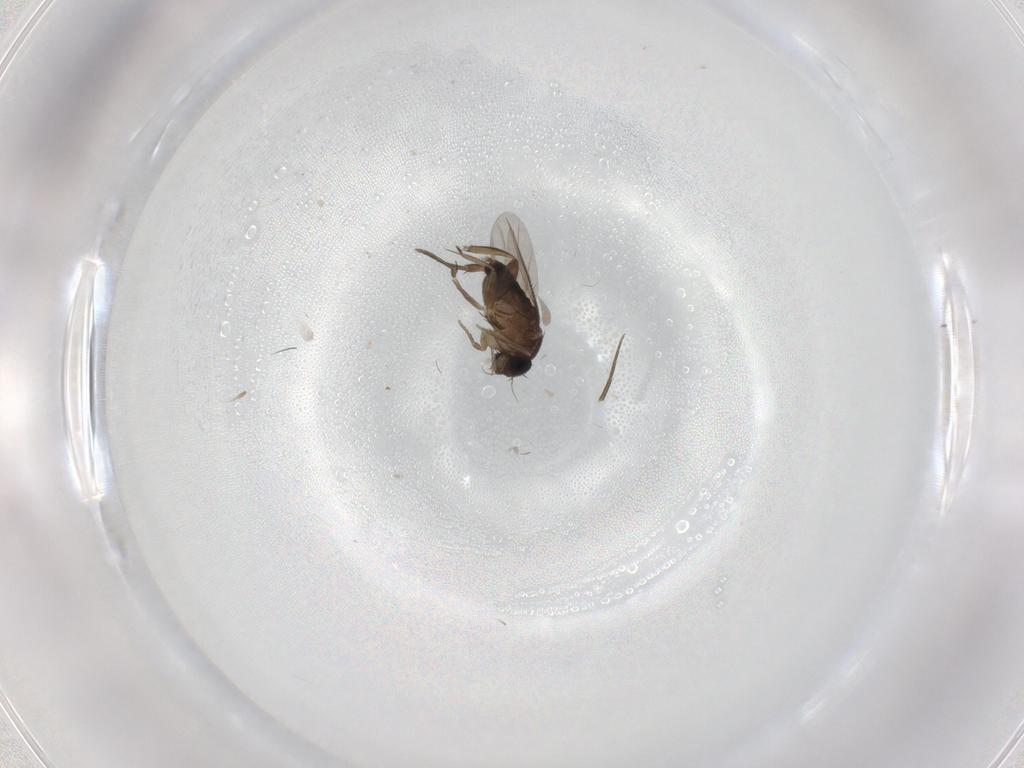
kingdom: Animalia
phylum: Arthropoda
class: Insecta
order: Diptera
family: Phoridae
